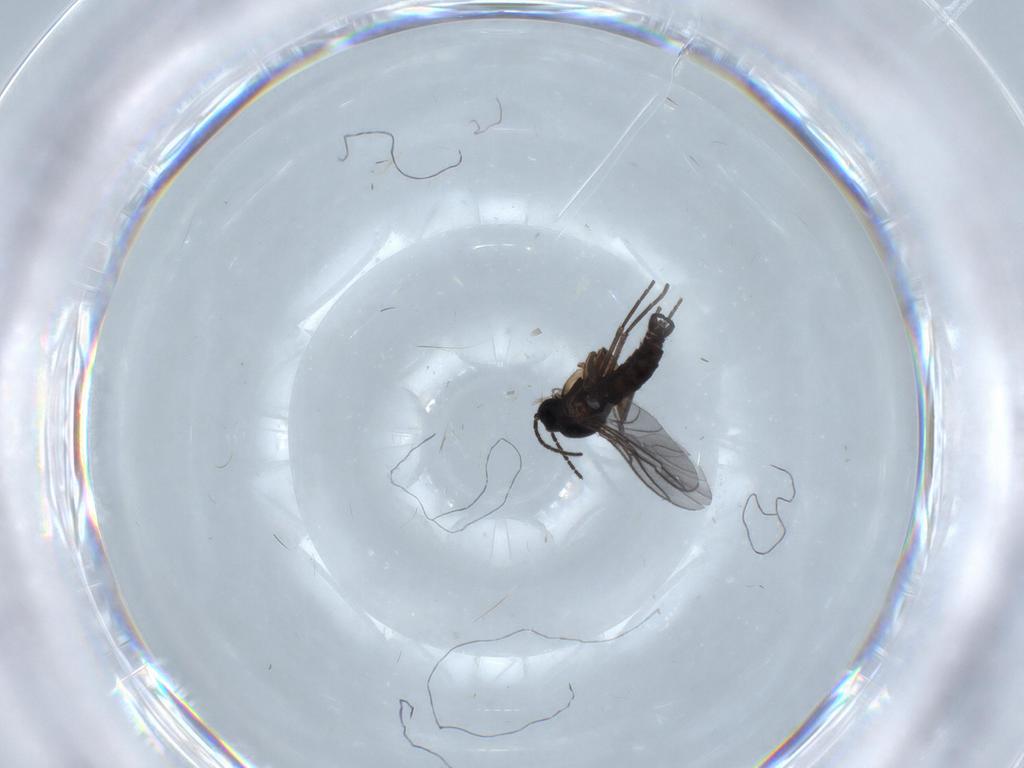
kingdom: Animalia
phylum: Arthropoda
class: Insecta
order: Diptera
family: Sciaridae
